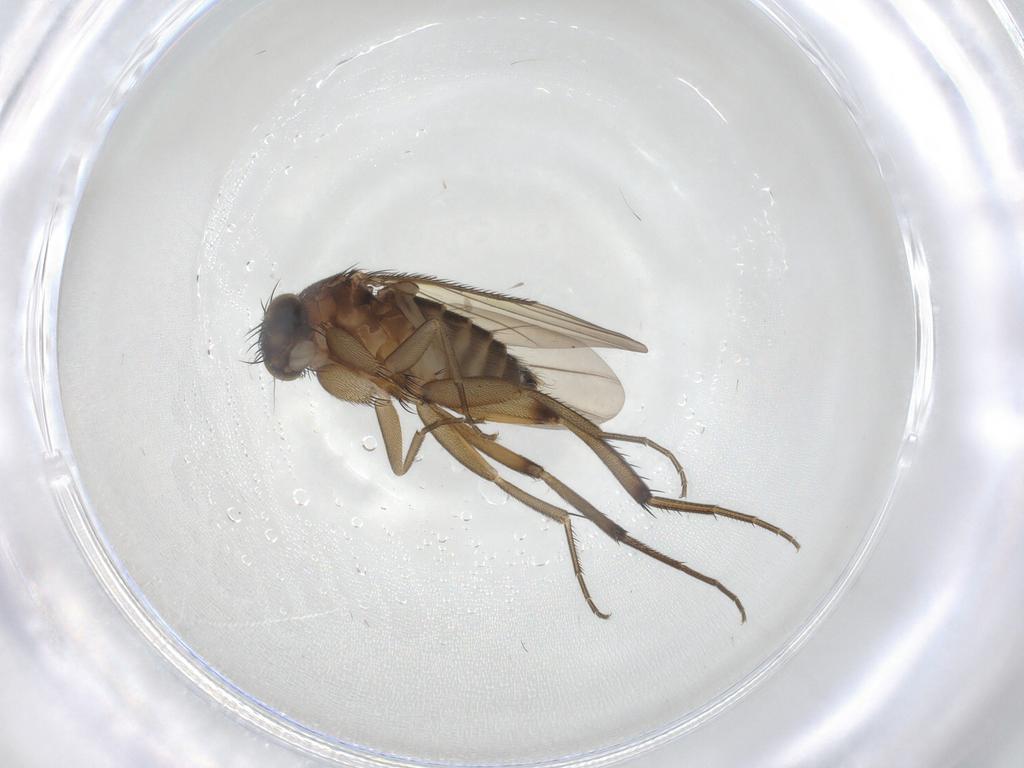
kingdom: Animalia
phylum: Arthropoda
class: Insecta
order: Diptera
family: Phoridae
